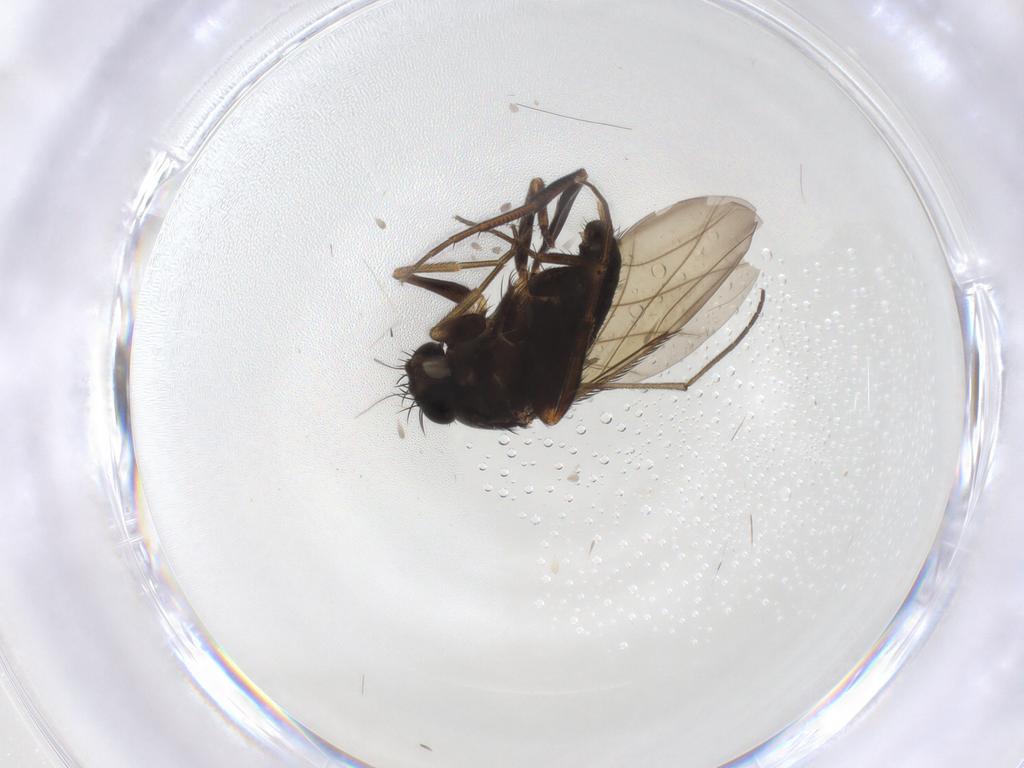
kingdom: Animalia
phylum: Arthropoda
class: Insecta
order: Diptera
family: Phoridae
